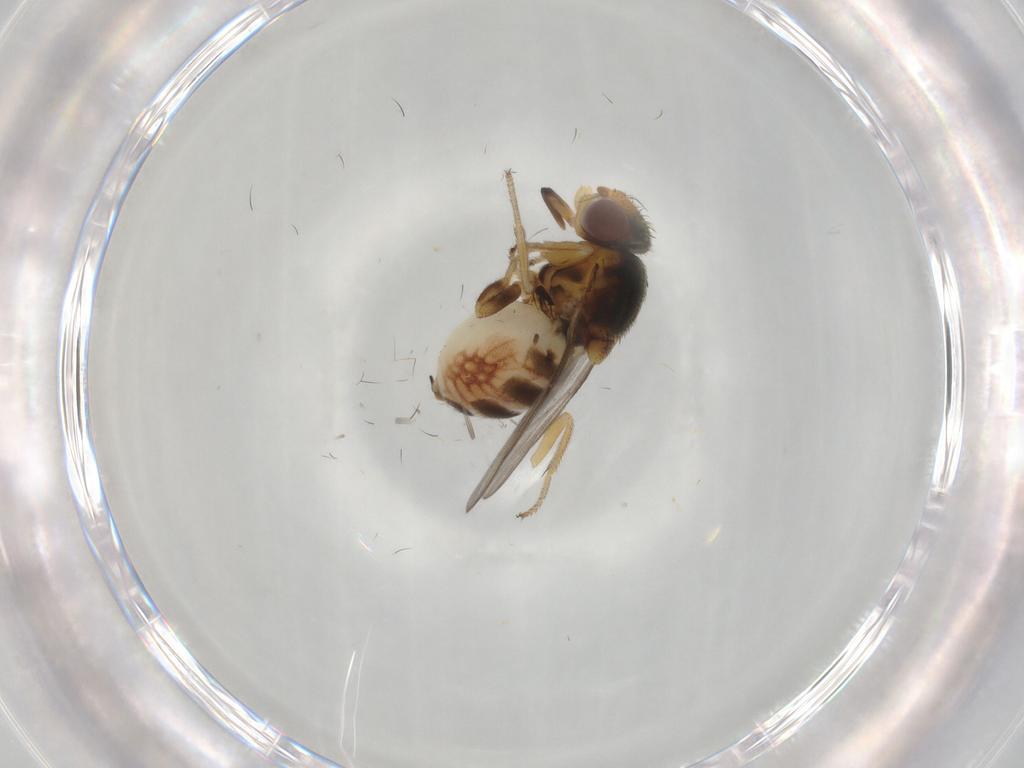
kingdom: Animalia
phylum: Arthropoda
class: Insecta
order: Diptera
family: Chloropidae
